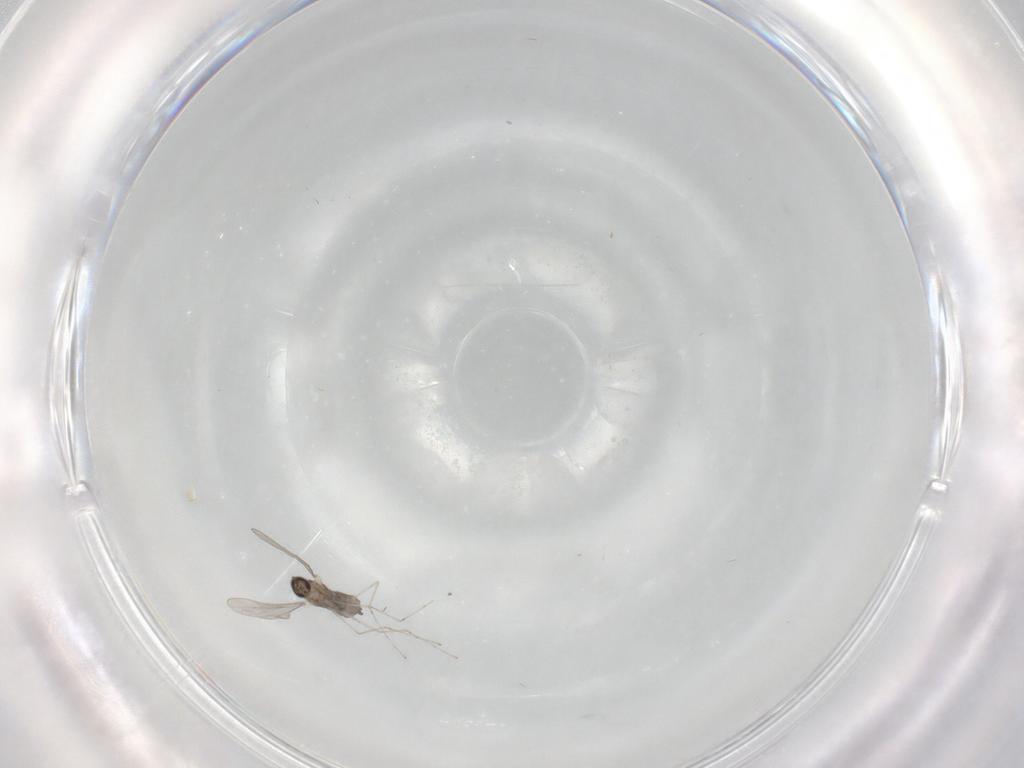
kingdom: Animalia
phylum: Arthropoda
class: Insecta
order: Diptera
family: Cecidomyiidae
